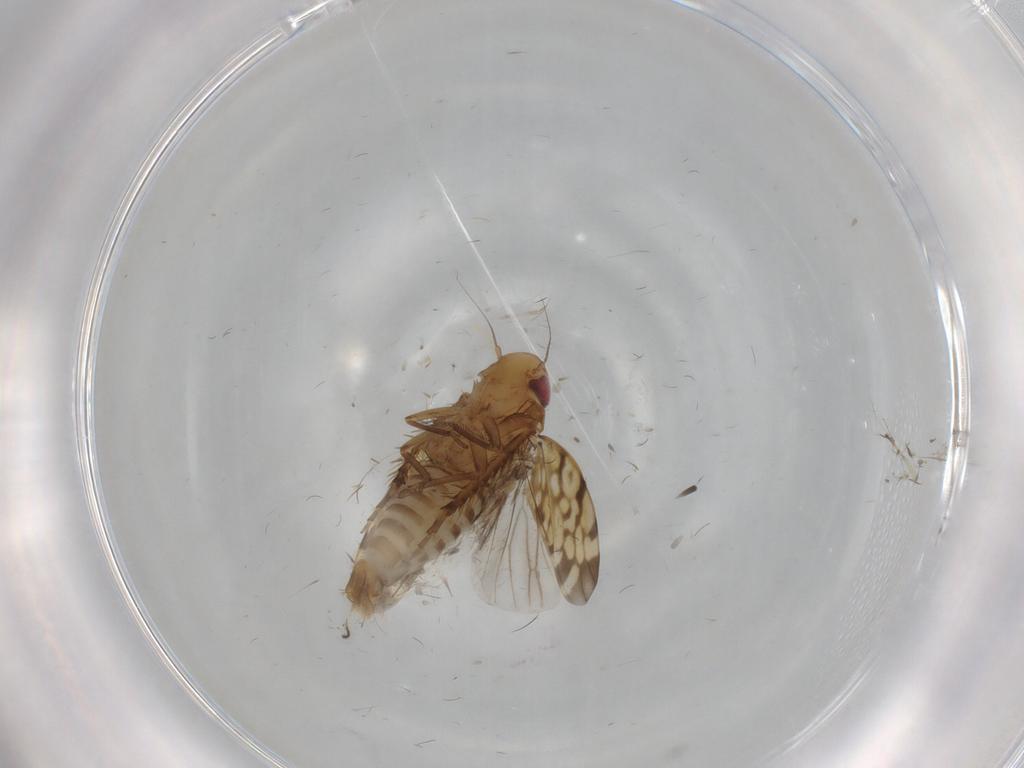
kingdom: Animalia
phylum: Arthropoda
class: Insecta
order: Hemiptera
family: Cicadellidae
